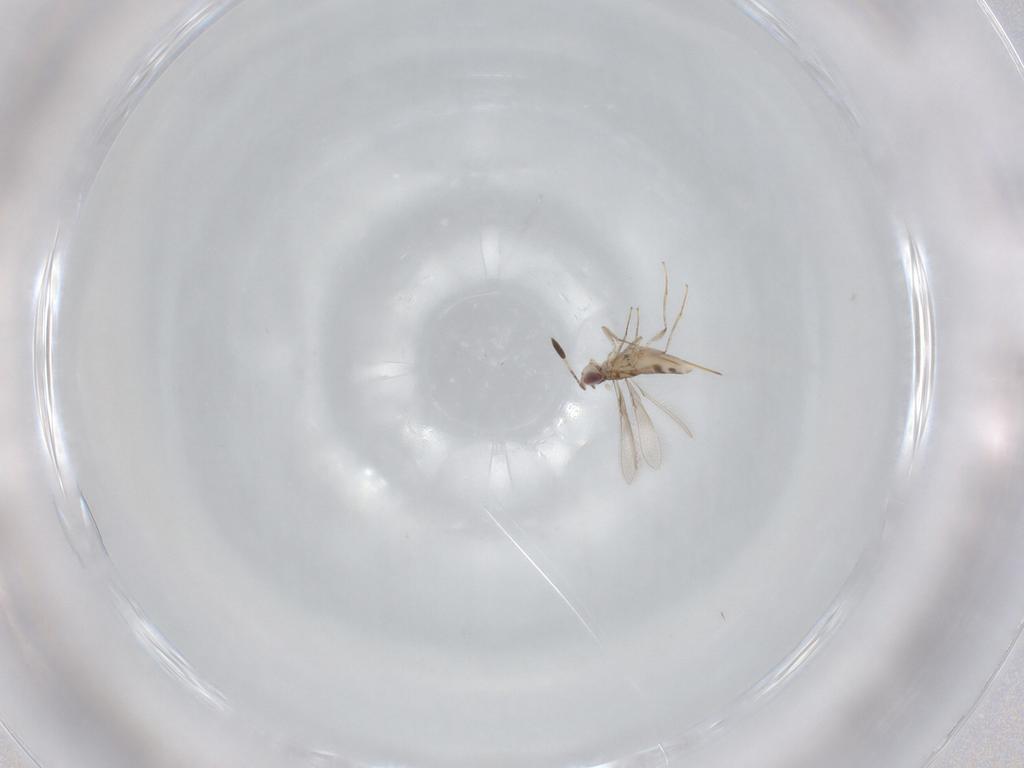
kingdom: Animalia
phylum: Arthropoda
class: Insecta
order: Hymenoptera
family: Mymaridae
